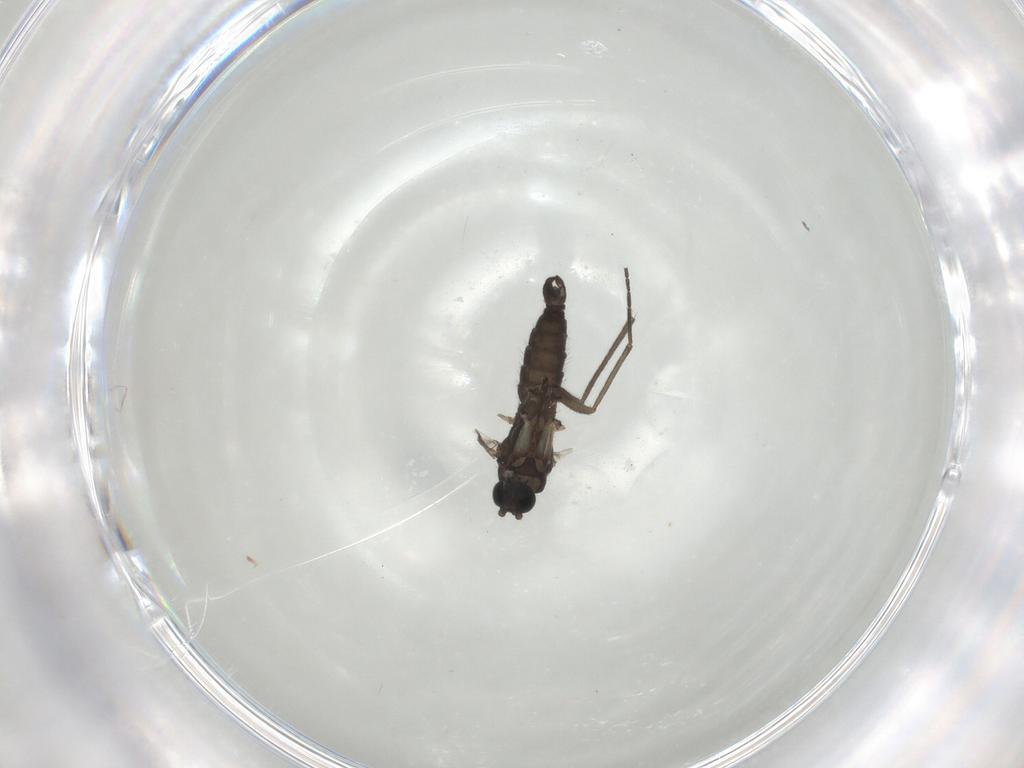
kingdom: Animalia
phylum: Arthropoda
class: Insecta
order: Diptera
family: Sciaridae
